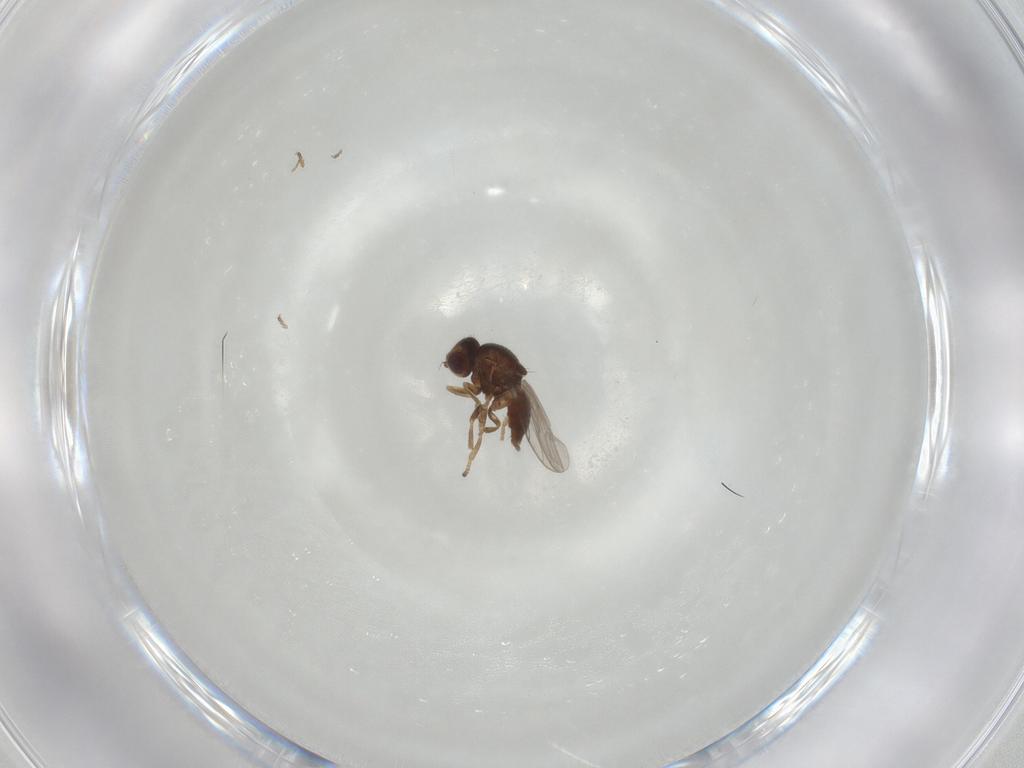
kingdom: Animalia
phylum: Arthropoda
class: Insecta
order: Diptera
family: Chloropidae
